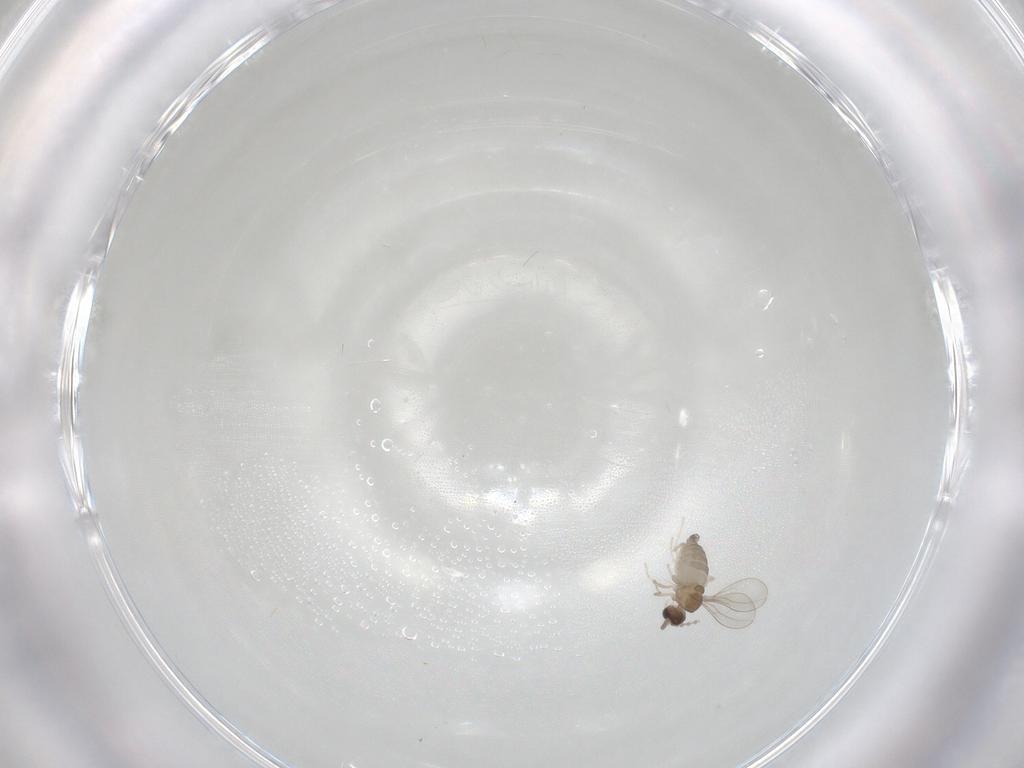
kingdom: Animalia
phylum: Arthropoda
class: Insecta
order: Diptera
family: Cecidomyiidae
